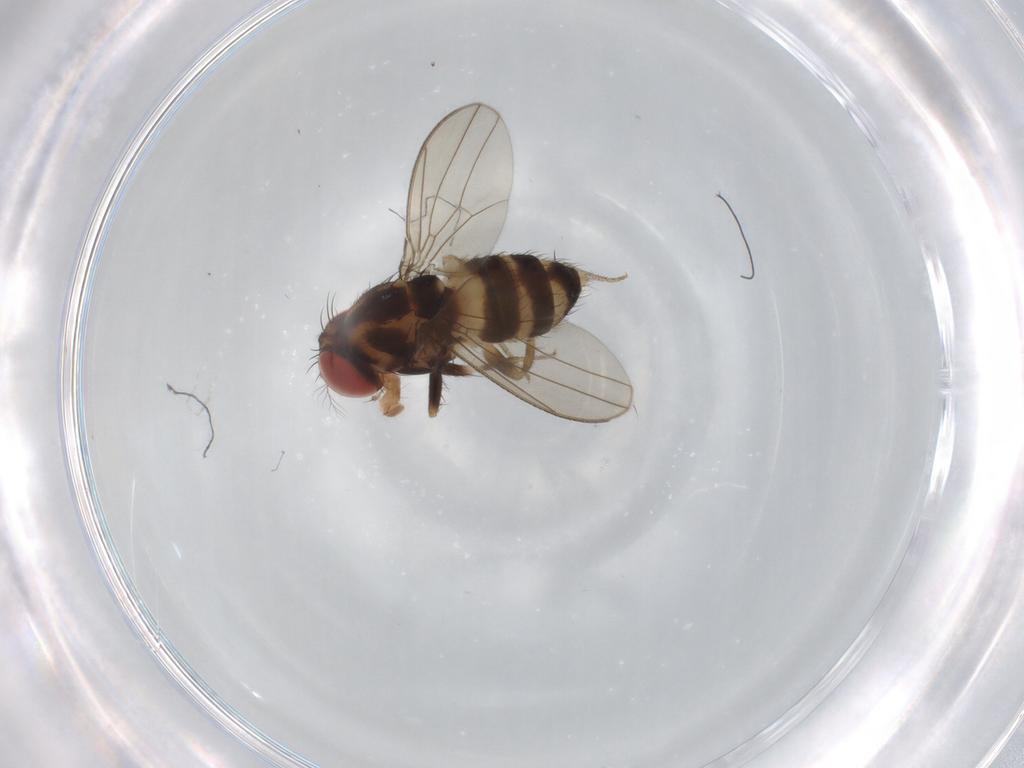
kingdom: Animalia
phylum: Arthropoda
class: Insecta
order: Diptera
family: Drosophilidae
